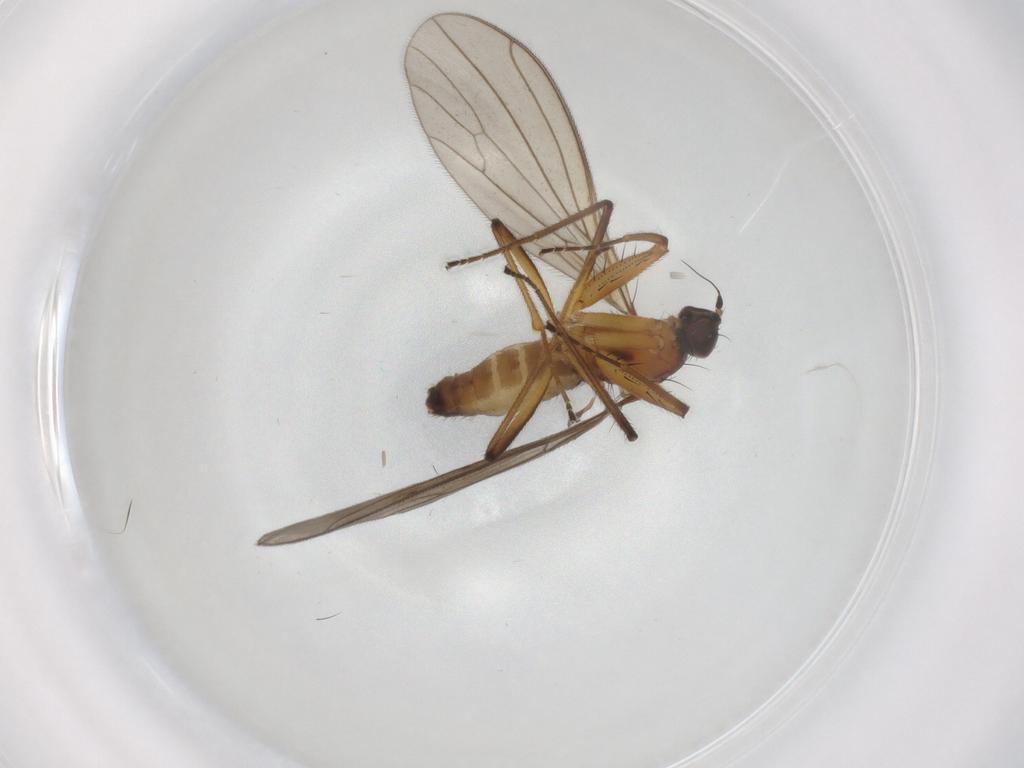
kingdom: Animalia
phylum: Arthropoda
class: Insecta
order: Diptera
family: Empididae
